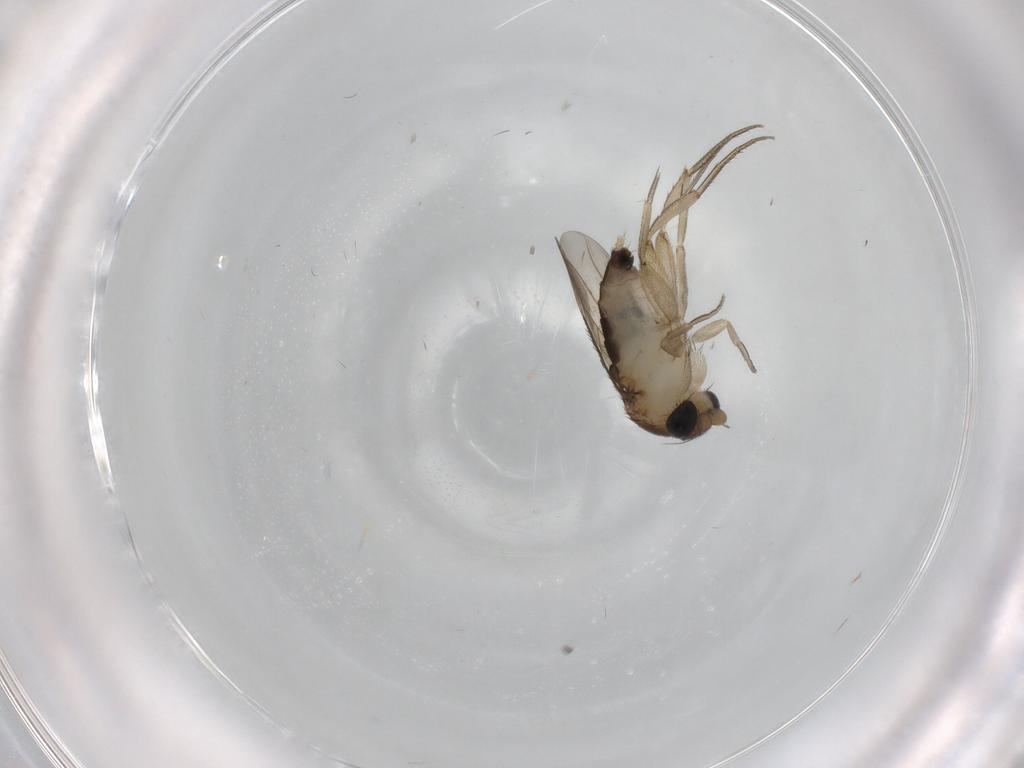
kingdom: Animalia
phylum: Arthropoda
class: Insecta
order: Diptera
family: Phoridae
